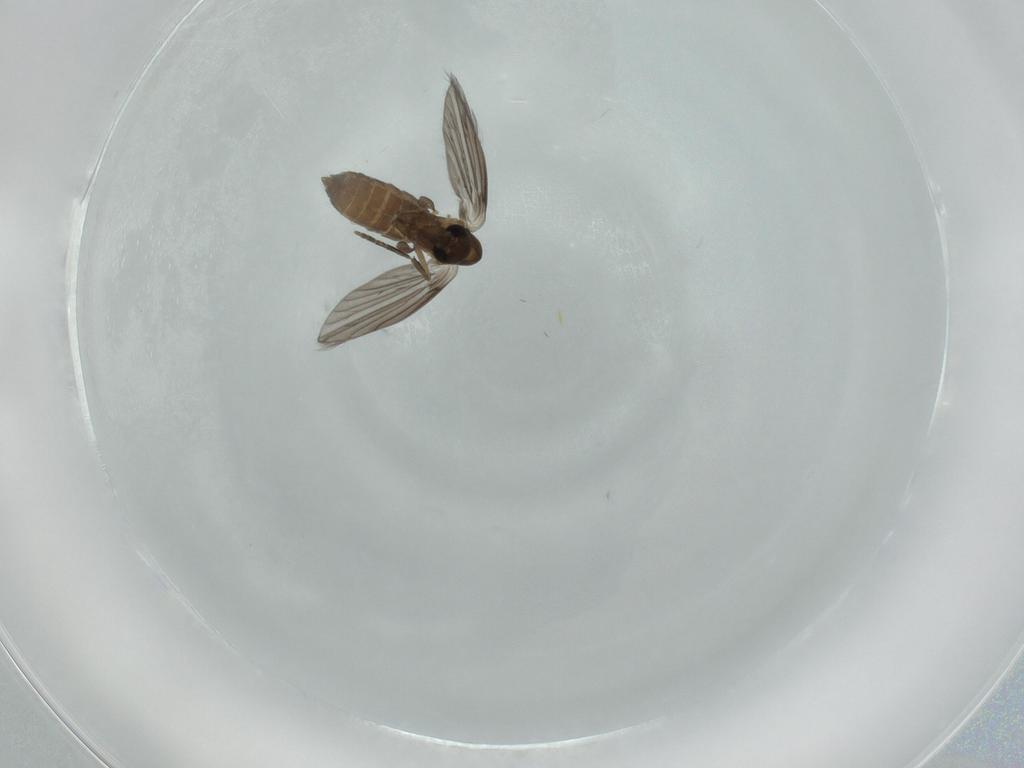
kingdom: Animalia
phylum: Arthropoda
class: Insecta
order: Diptera
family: Psychodidae
